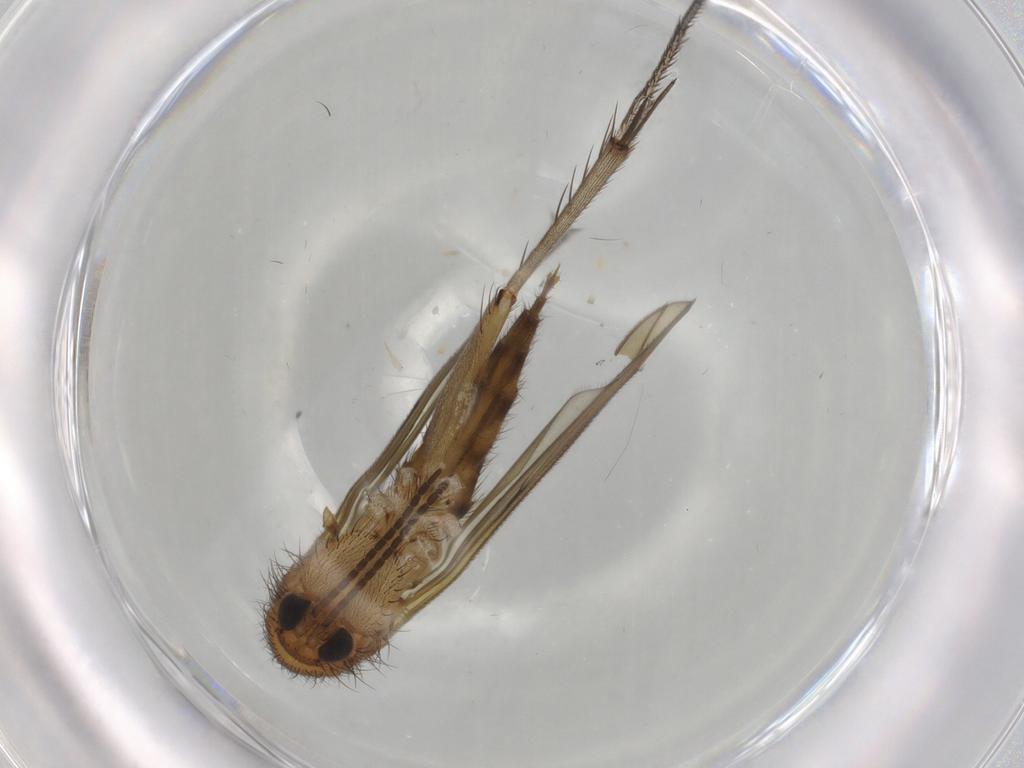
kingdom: Animalia
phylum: Arthropoda
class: Insecta
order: Diptera
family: Mycetophilidae
